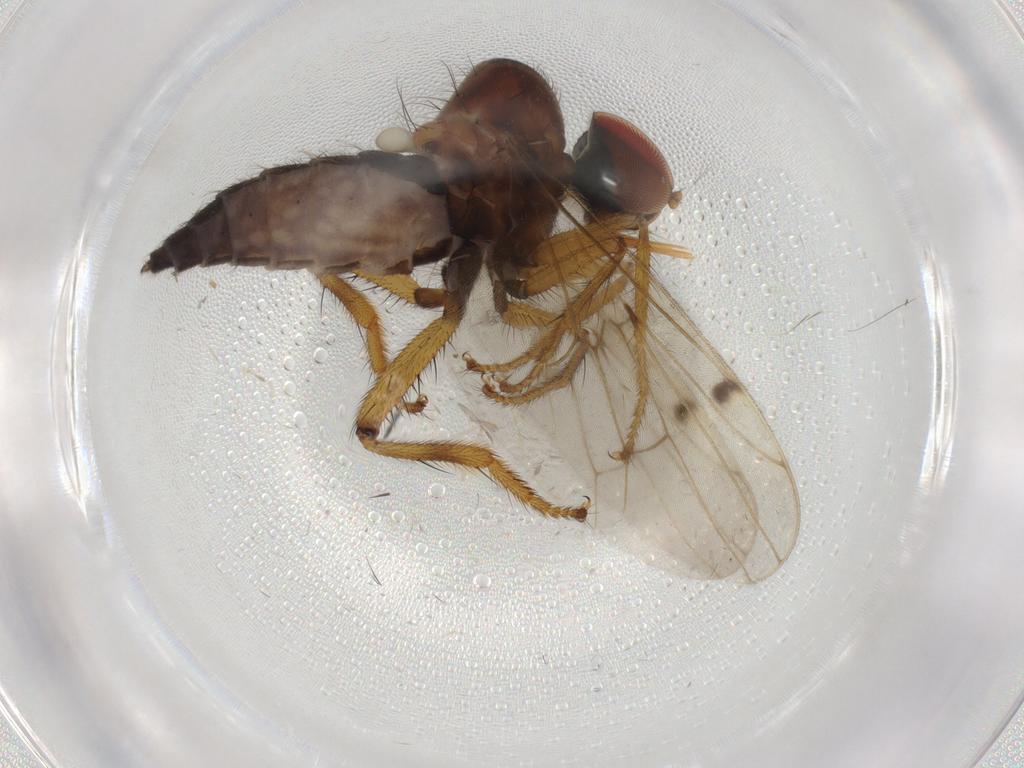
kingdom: Animalia
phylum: Arthropoda
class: Insecta
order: Diptera
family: Hybotidae
